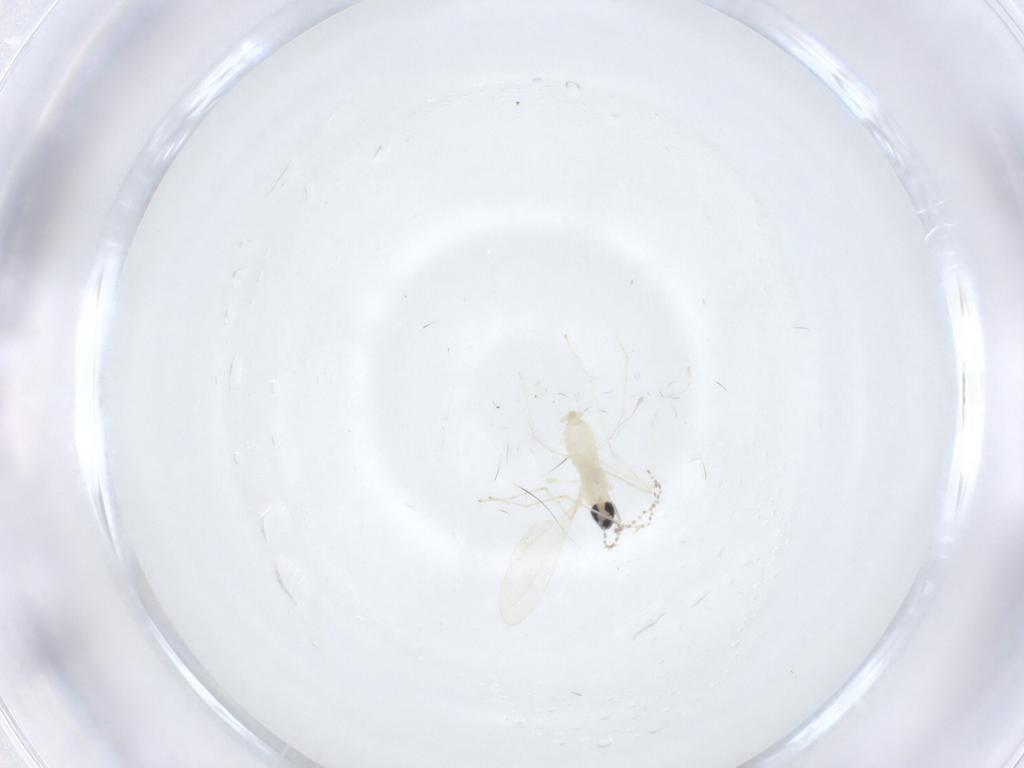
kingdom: Animalia
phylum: Arthropoda
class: Insecta
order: Diptera
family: Cecidomyiidae
